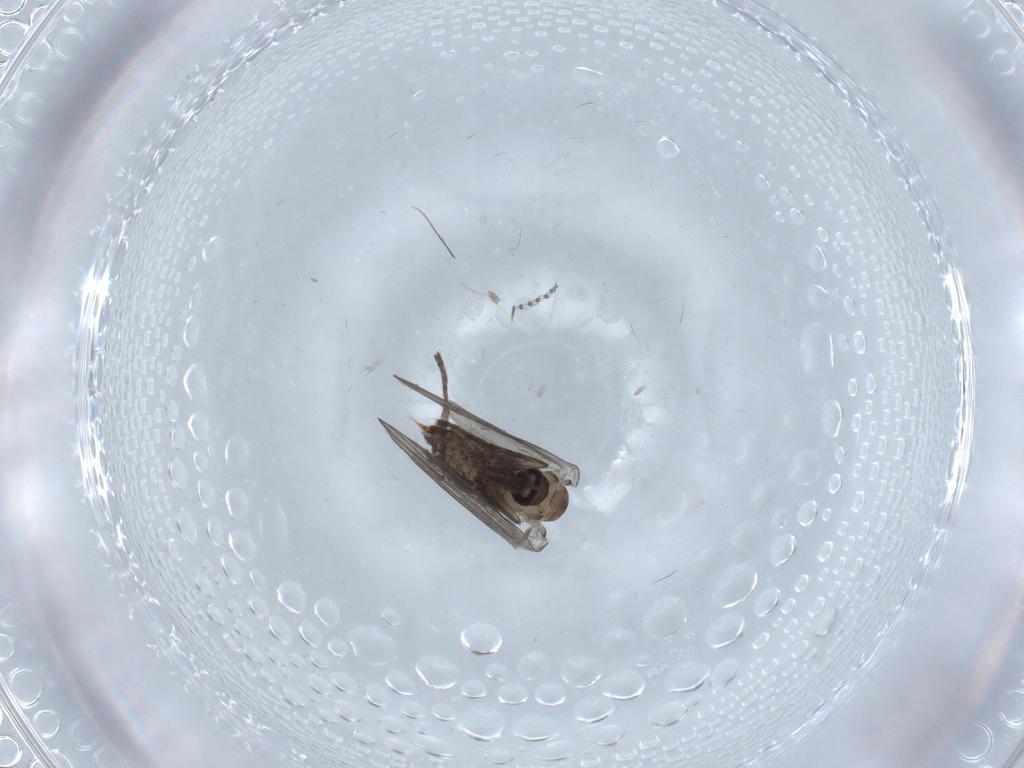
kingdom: Animalia
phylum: Arthropoda
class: Insecta
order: Diptera
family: Psychodidae
